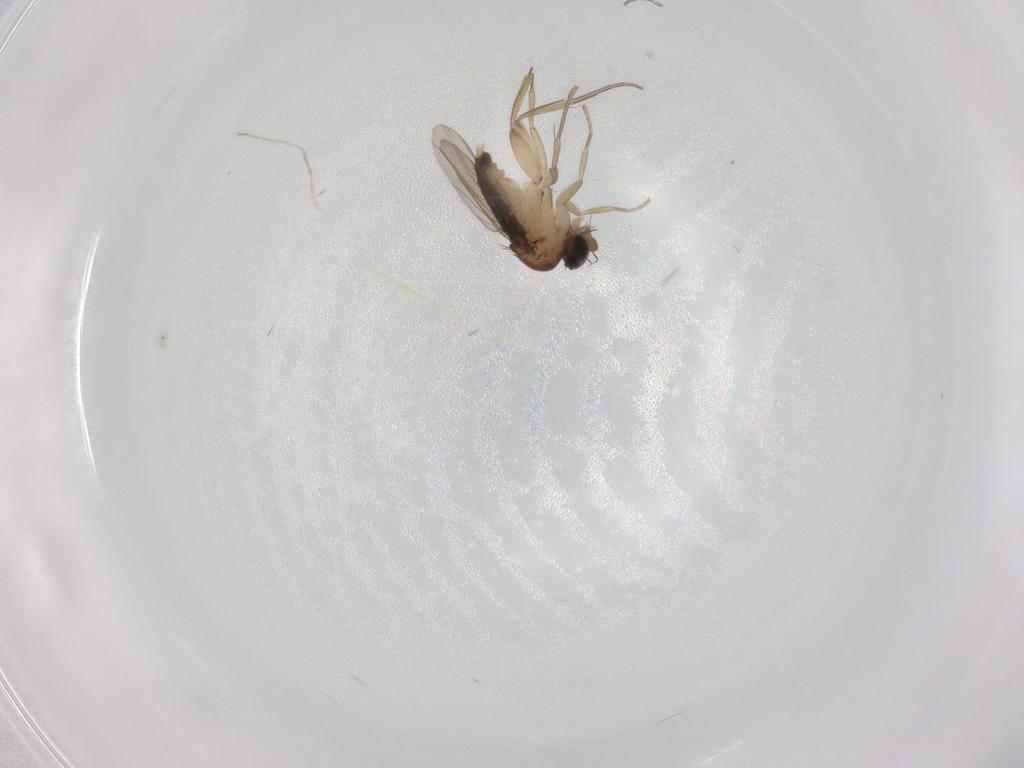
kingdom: Animalia
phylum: Arthropoda
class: Insecta
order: Diptera
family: Phoridae
